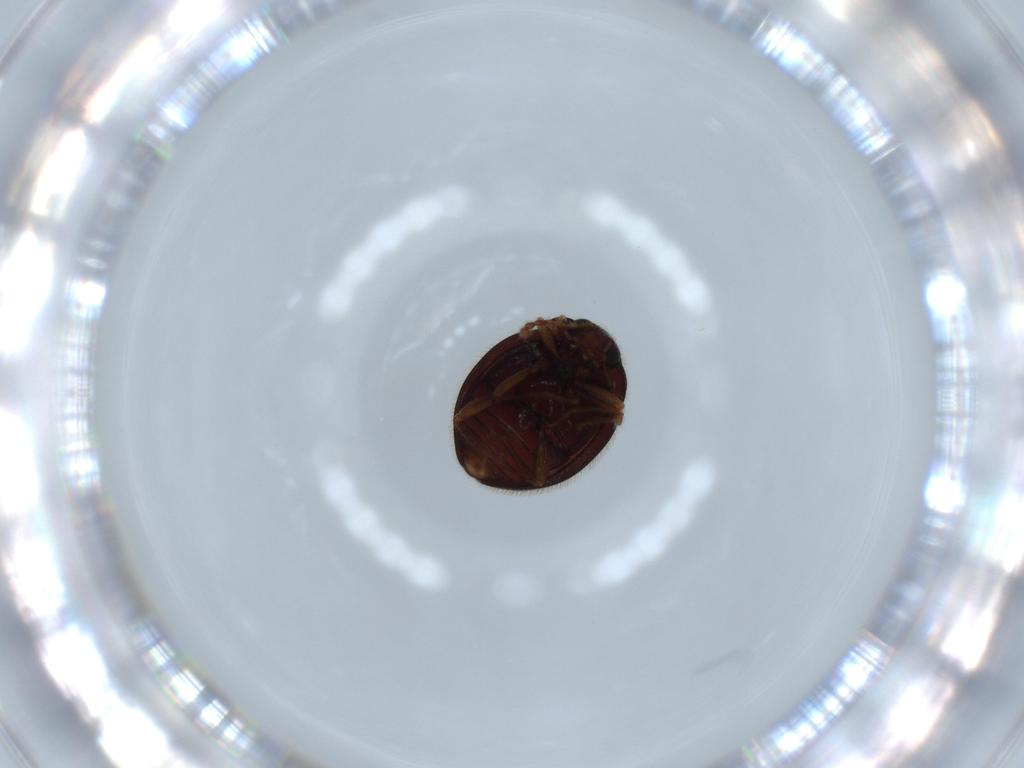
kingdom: Animalia
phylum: Arthropoda
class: Insecta
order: Coleoptera
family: Anamorphidae
